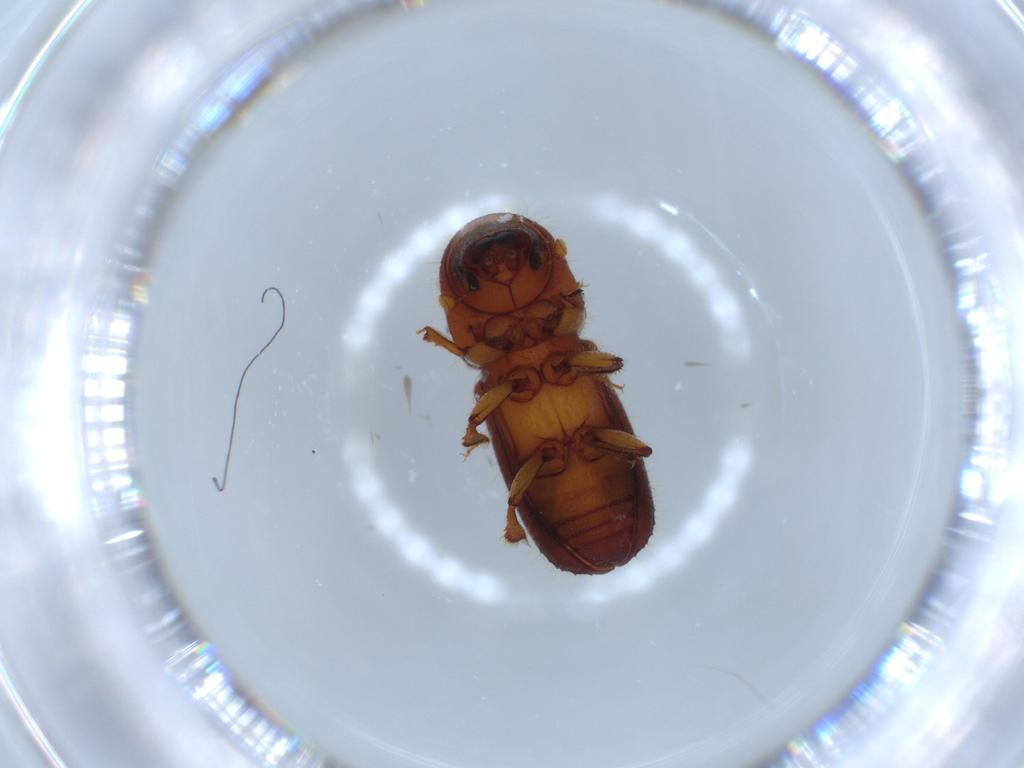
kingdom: Animalia
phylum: Arthropoda
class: Insecta
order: Coleoptera
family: Curculionidae
